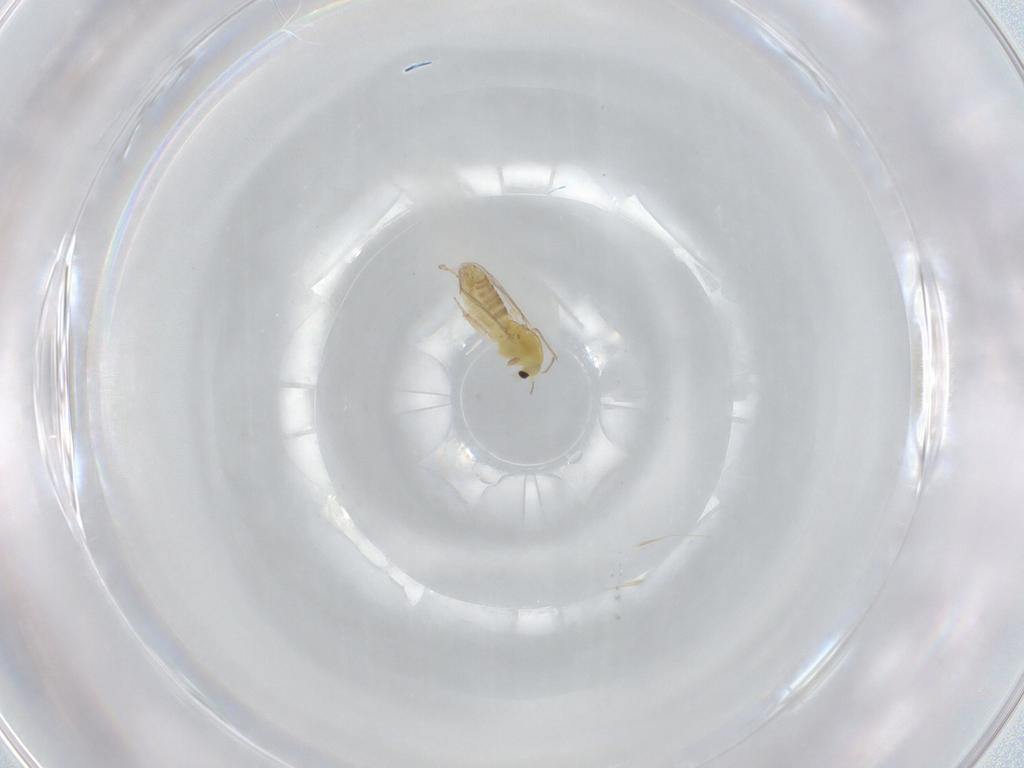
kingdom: Animalia
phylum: Arthropoda
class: Insecta
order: Diptera
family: Chironomidae
